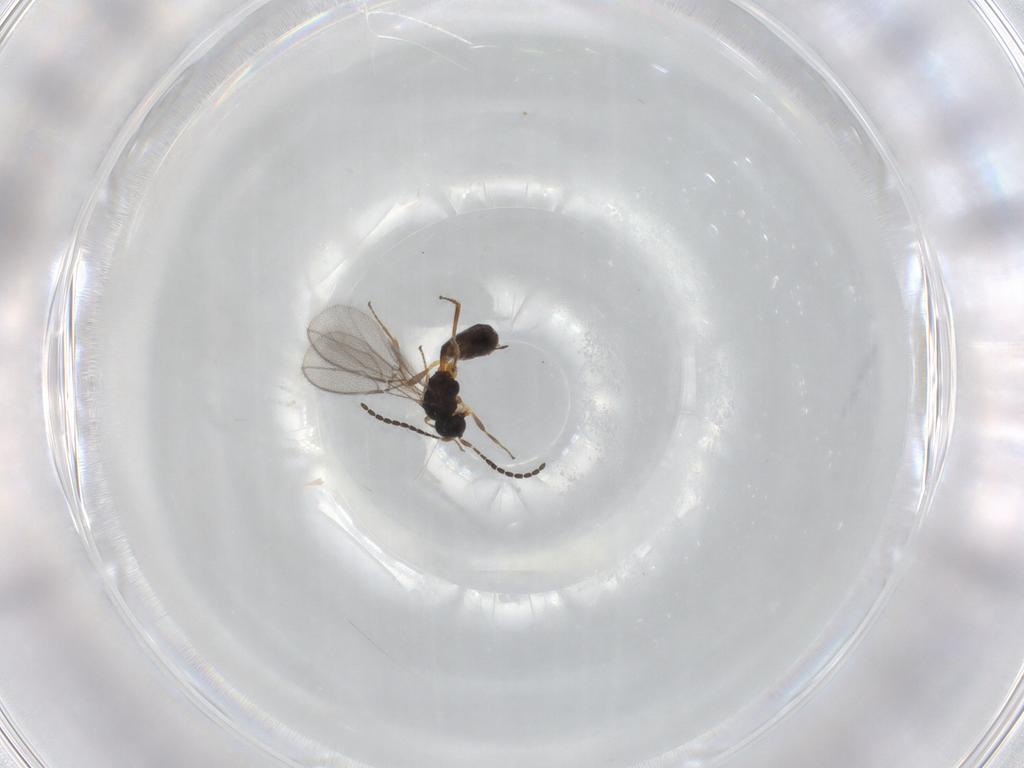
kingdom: Animalia
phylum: Arthropoda
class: Insecta
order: Hymenoptera
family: Braconidae
